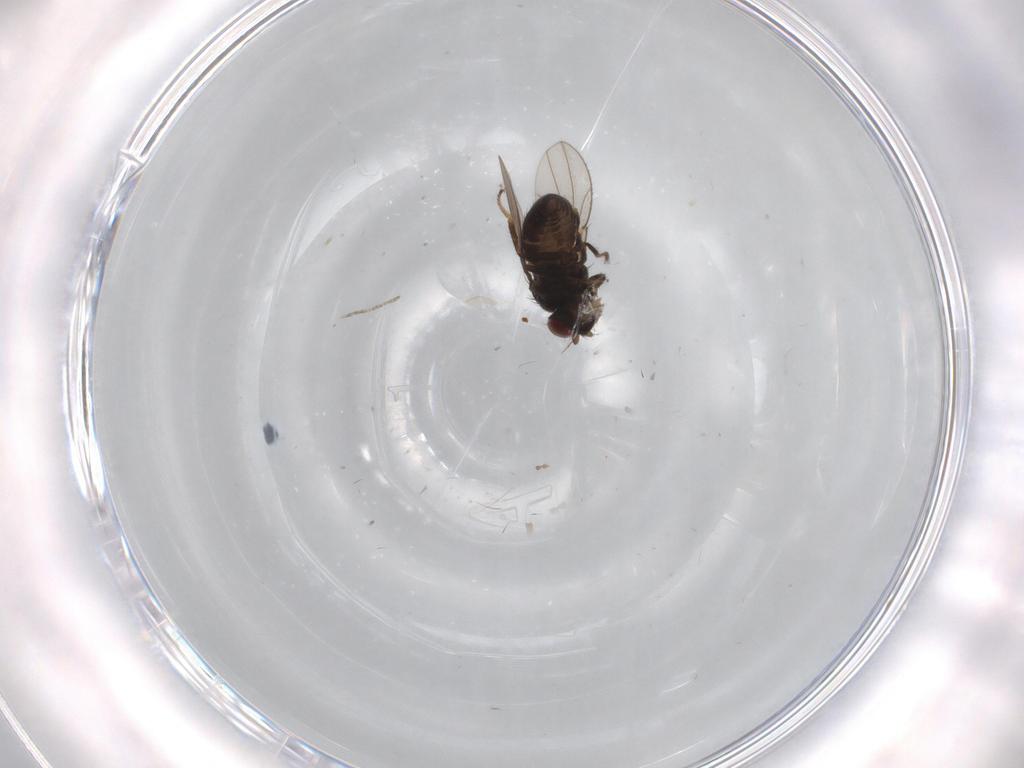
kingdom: Animalia
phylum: Arthropoda
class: Insecta
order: Diptera
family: Ephydridae
